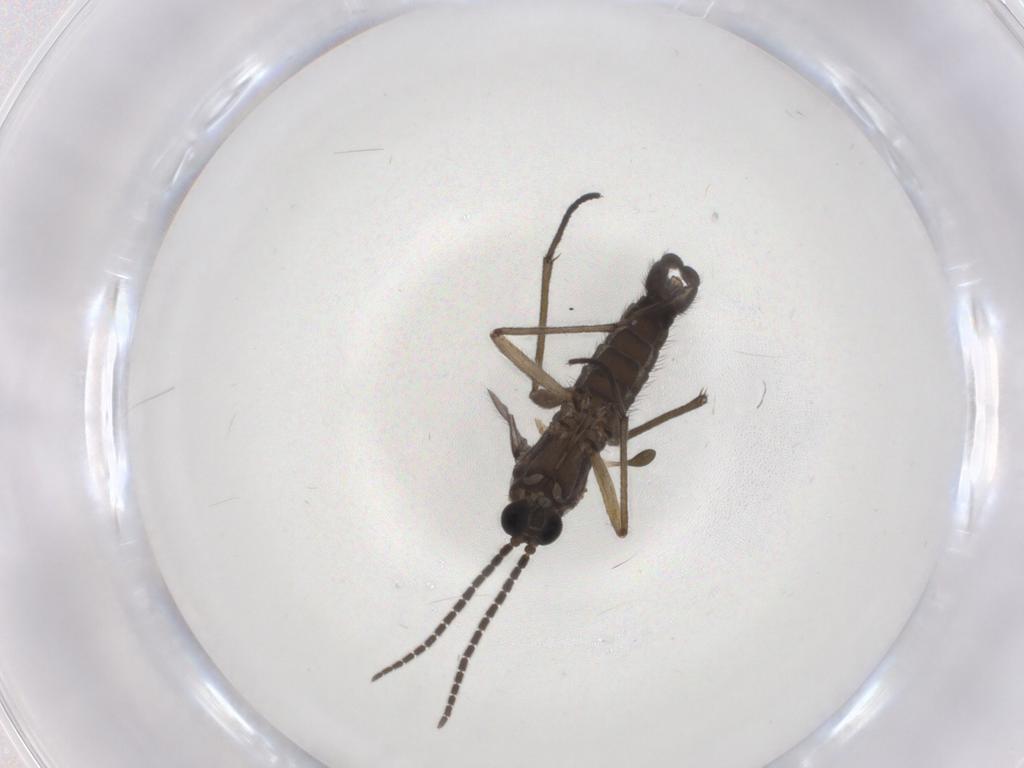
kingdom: Animalia
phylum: Arthropoda
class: Insecta
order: Diptera
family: Sciaridae
